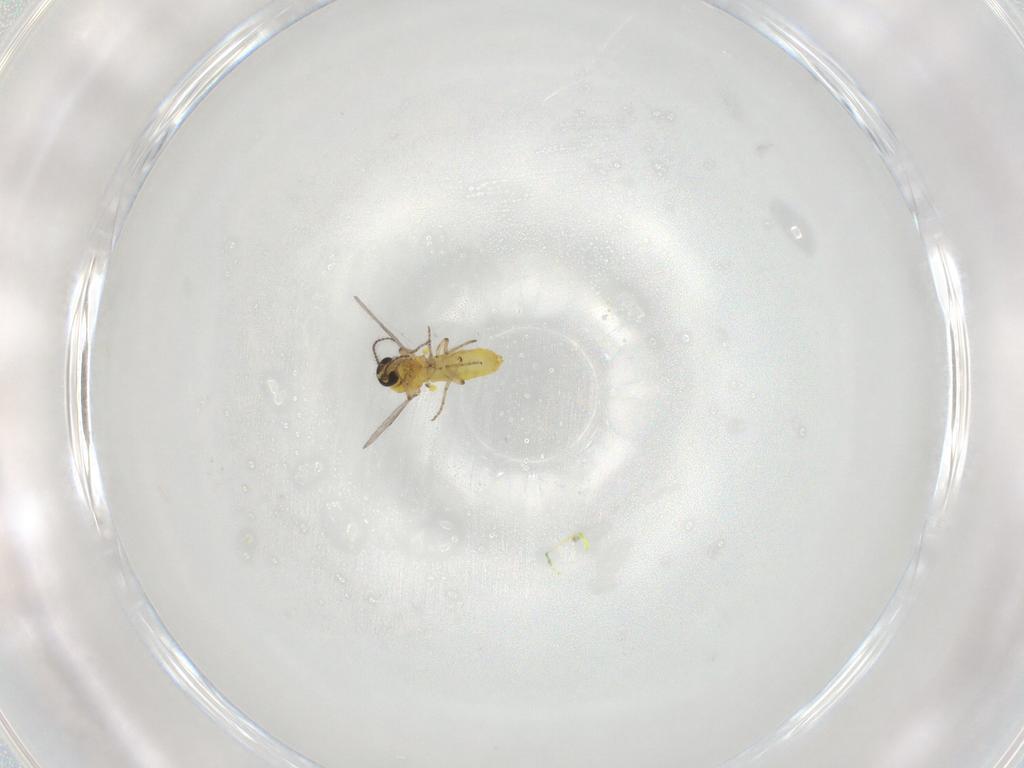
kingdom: Animalia
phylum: Arthropoda
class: Insecta
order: Diptera
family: Ceratopogonidae
